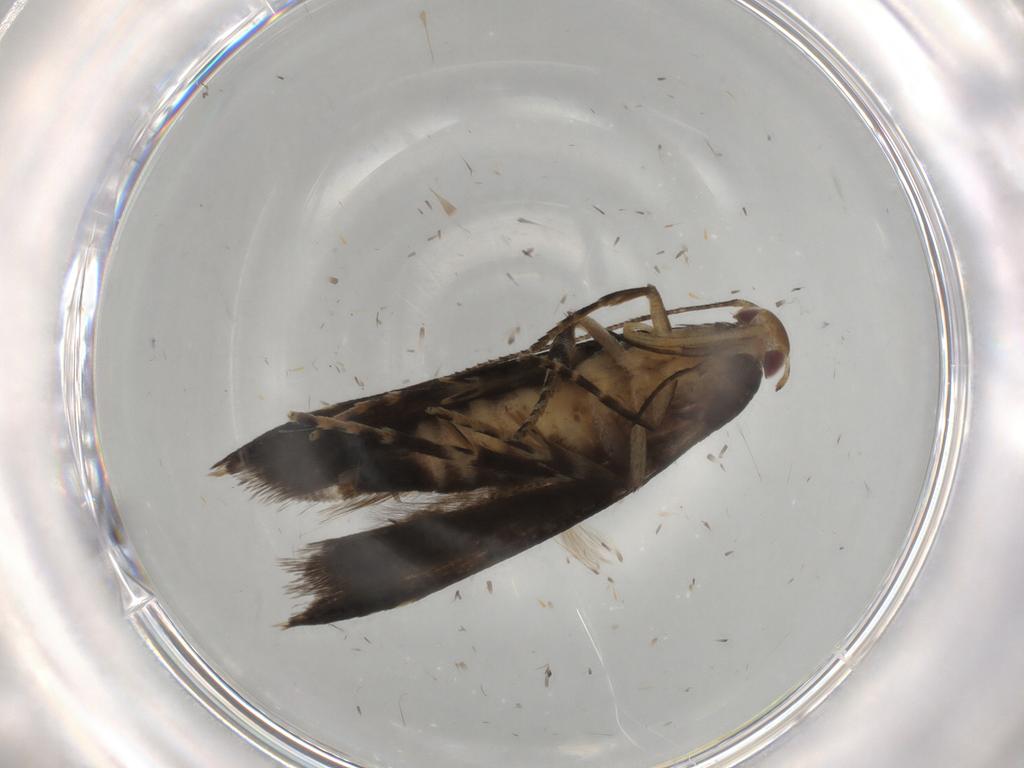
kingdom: Animalia
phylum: Arthropoda
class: Insecta
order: Lepidoptera
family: Gelechiidae
